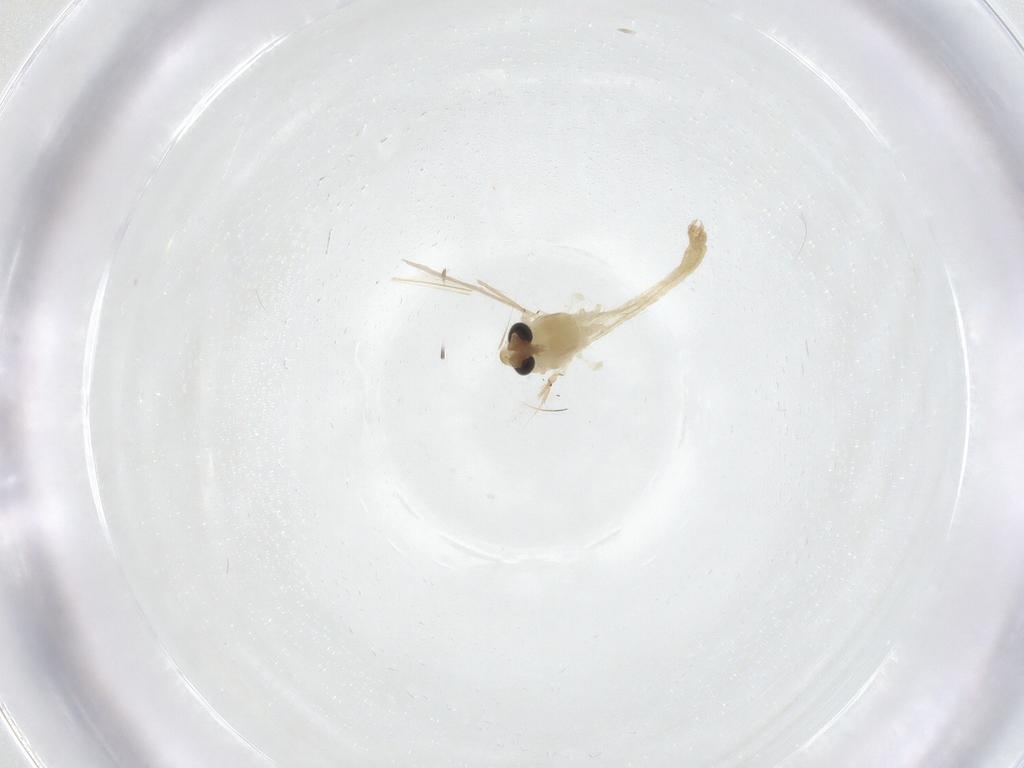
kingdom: Animalia
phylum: Arthropoda
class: Insecta
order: Diptera
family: Chironomidae
